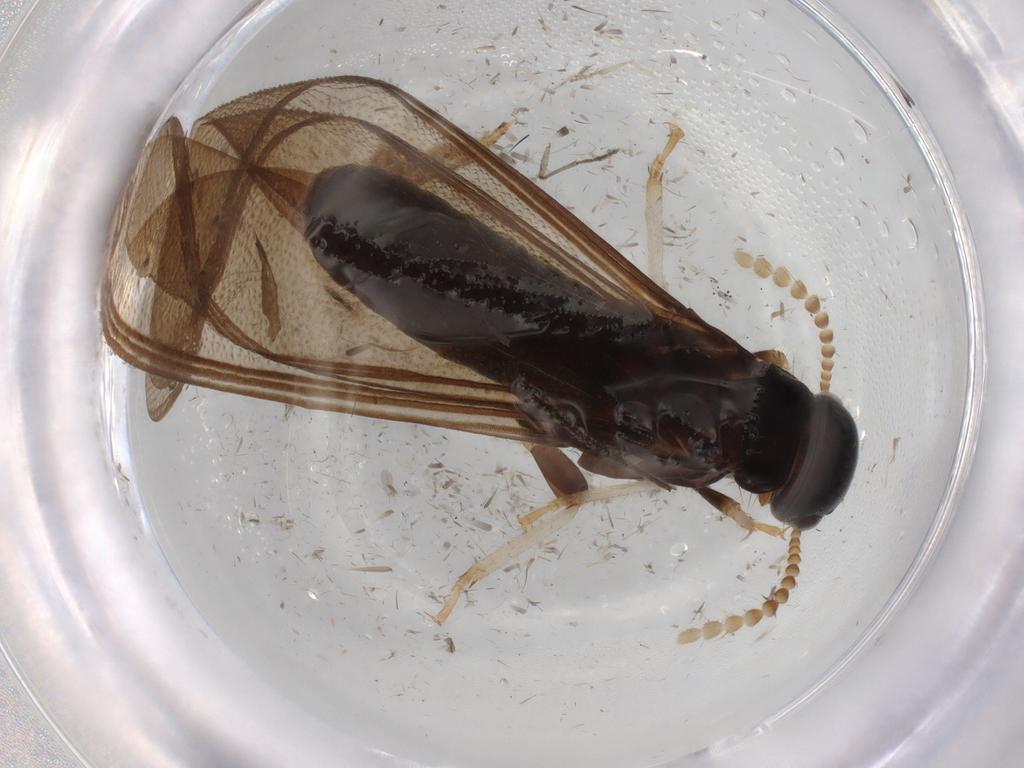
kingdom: Animalia
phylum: Arthropoda
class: Insecta
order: Blattodea
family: Kalotermitidae
